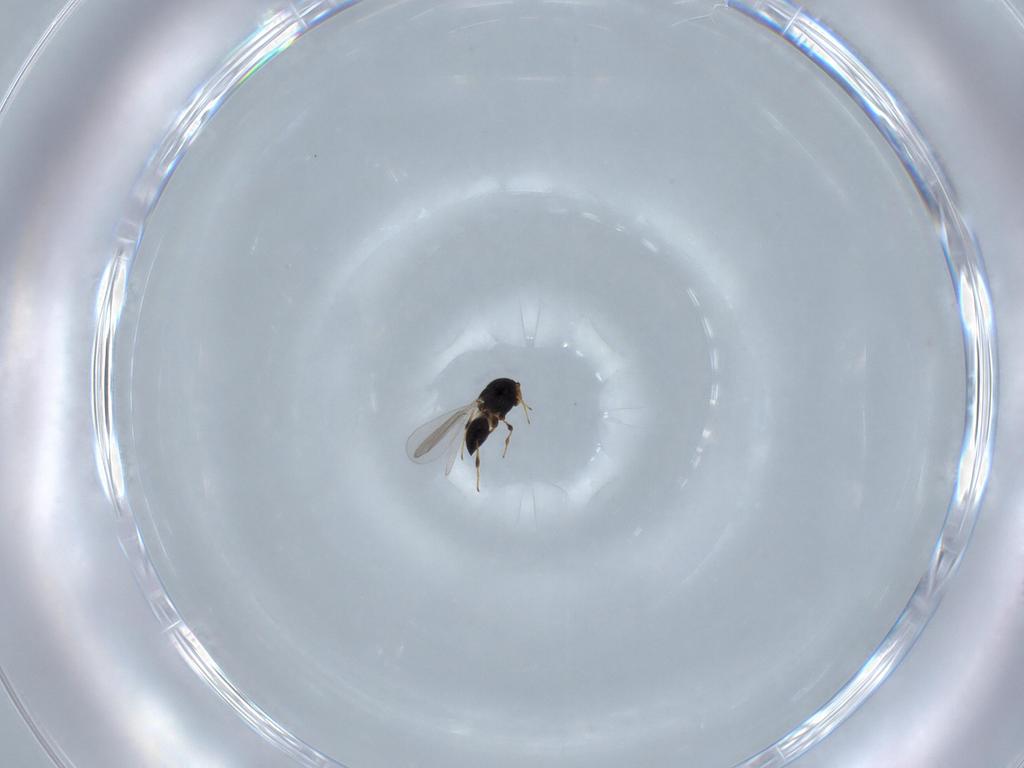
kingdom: Animalia
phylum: Arthropoda
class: Insecta
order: Hymenoptera
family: Platygastridae
